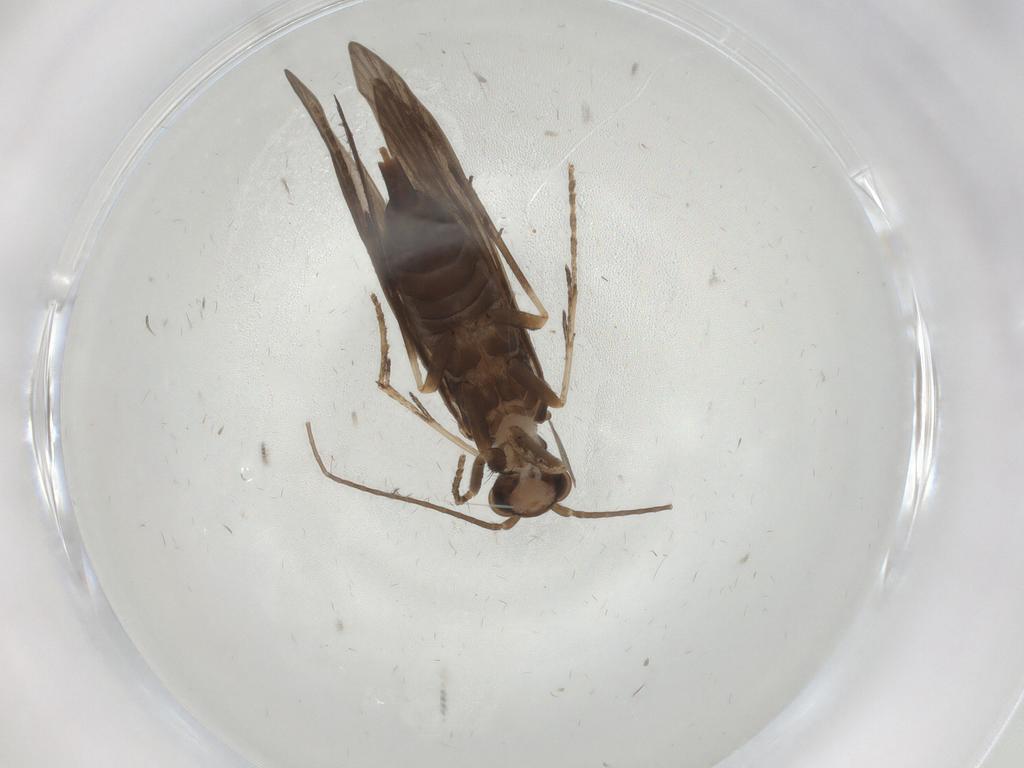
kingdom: Animalia
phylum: Arthropoda
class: Insecta
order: Trichoptera
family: Xiphocentronidae
